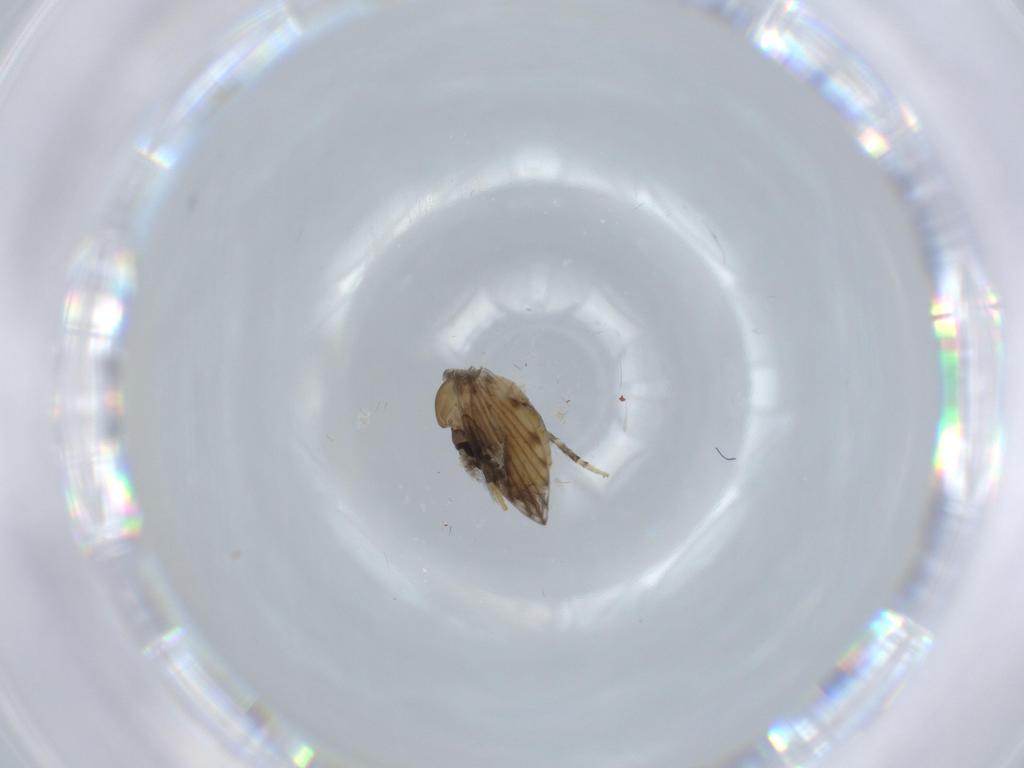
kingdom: Animalia
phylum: Arthropoda
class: Insecta
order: Diptera
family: Psychodidae
